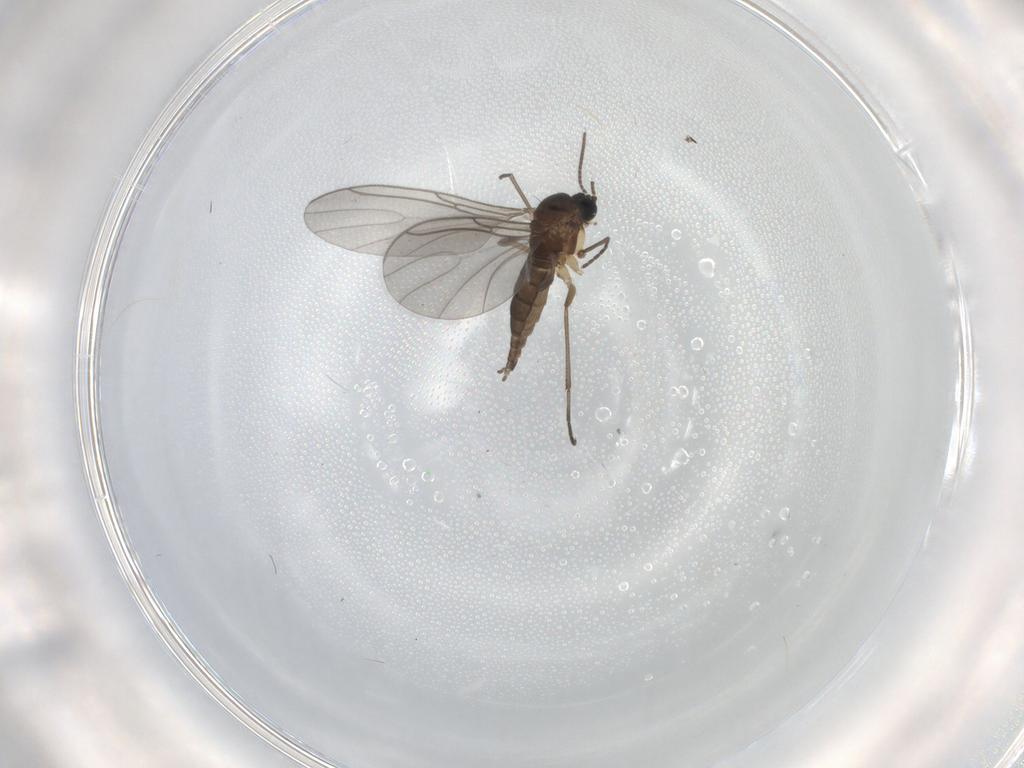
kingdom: Animalia
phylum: Arthropoda
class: Insecta
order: Diptera
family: Sciaridae
